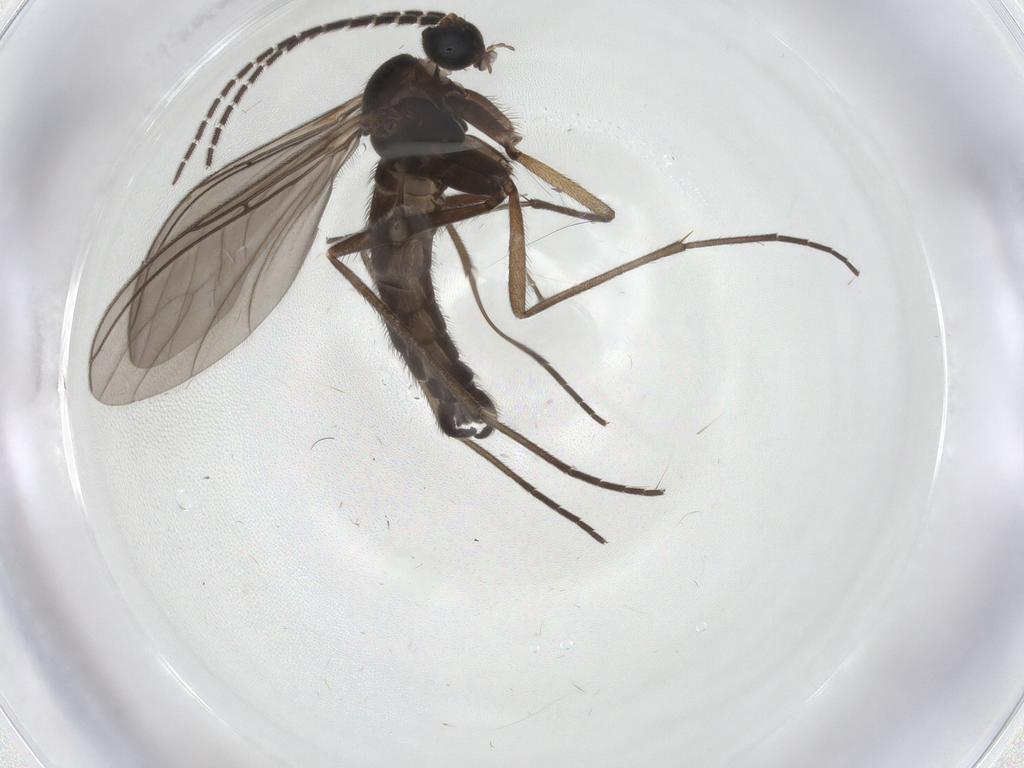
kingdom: Animalia
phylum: Arthropoda
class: Insecta
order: Diptera
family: Sciaridae
